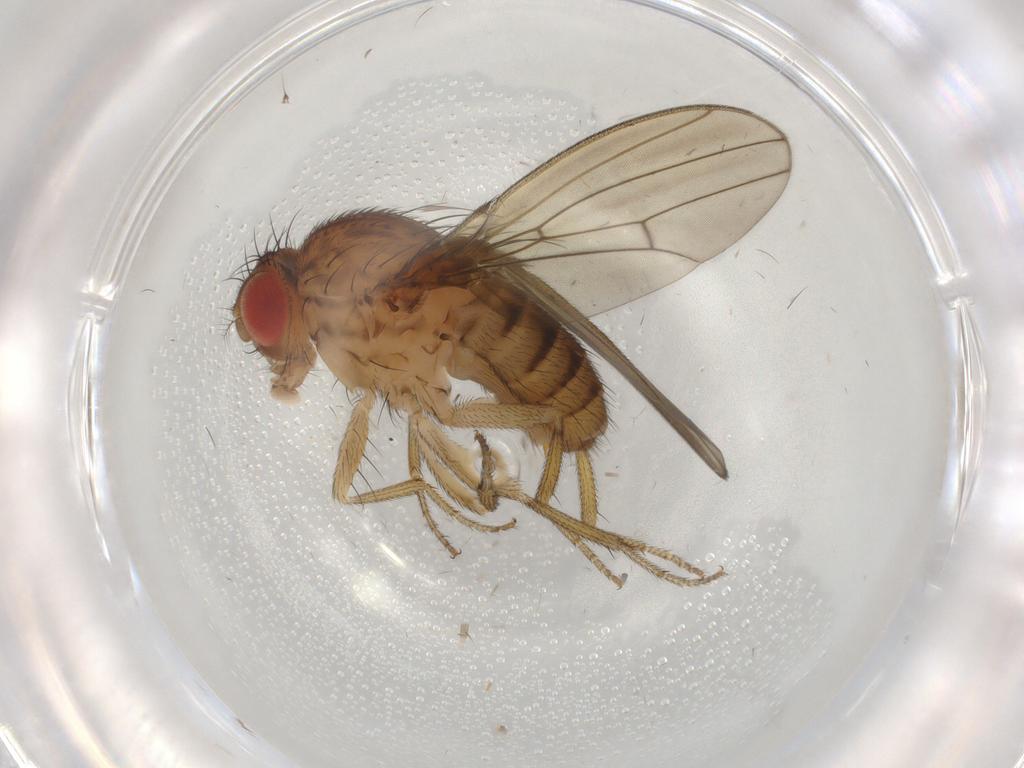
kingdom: Animalia
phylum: Arthropoda
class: Insecta
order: Diptera
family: Drosophilidae
